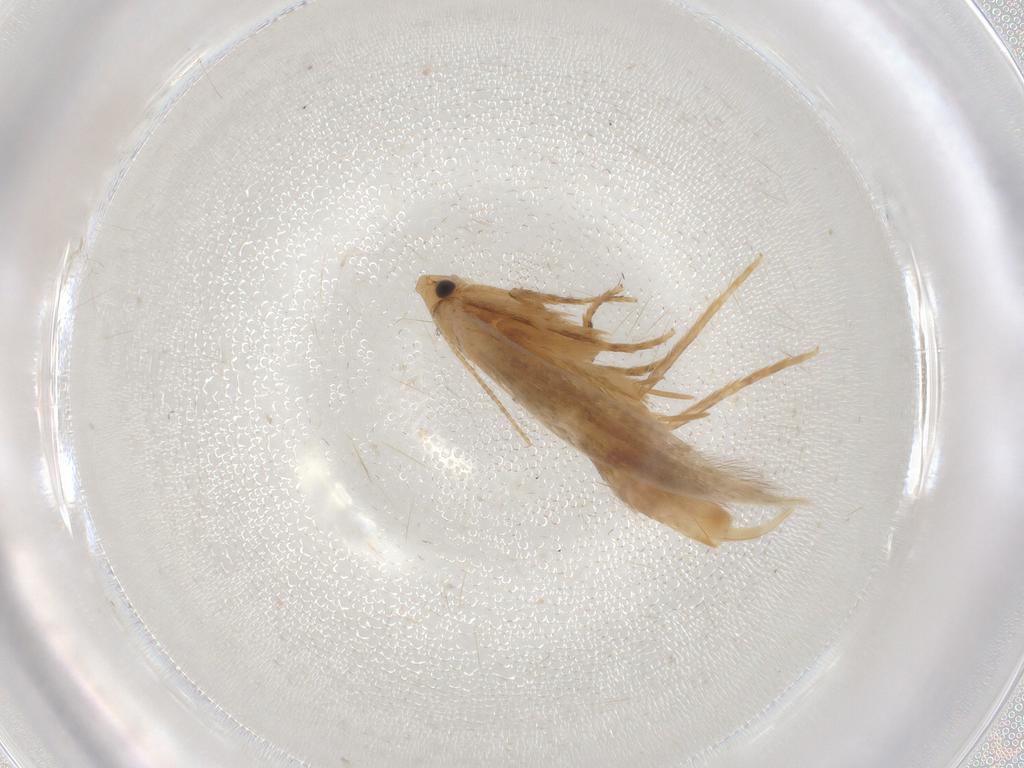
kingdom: Animalia
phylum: Arthropoda
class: Insecta
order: Lepidoptera
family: Tineidae
